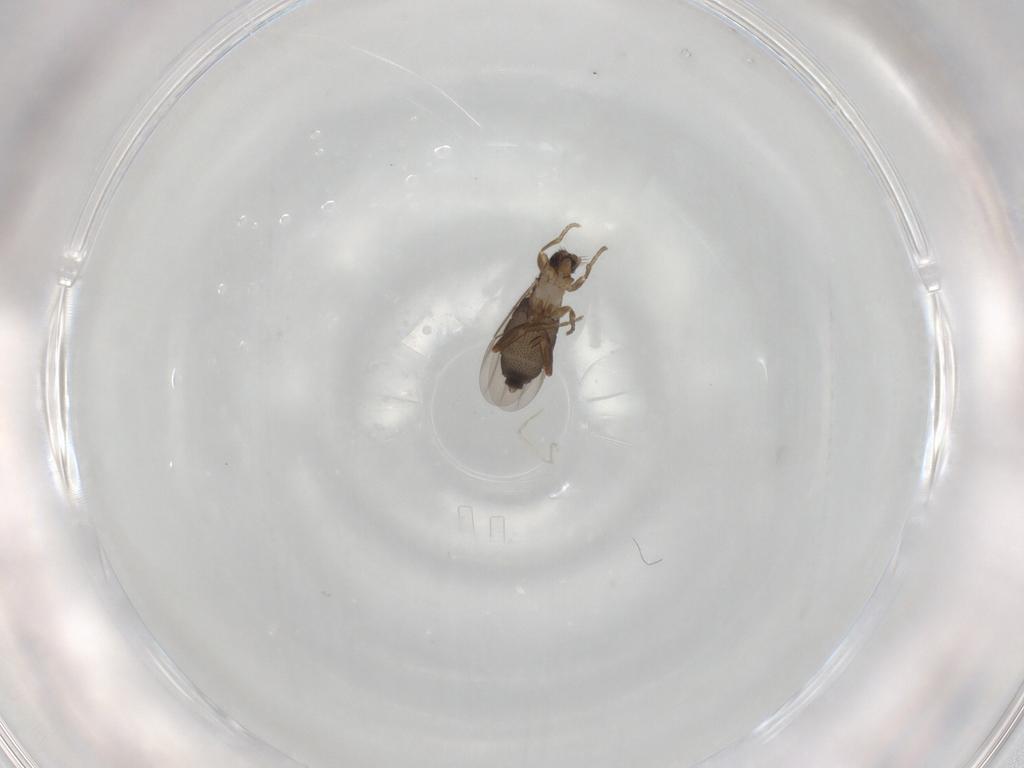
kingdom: Animalia
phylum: Arthropoda
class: Insecta
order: Diptera
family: Phoridae
